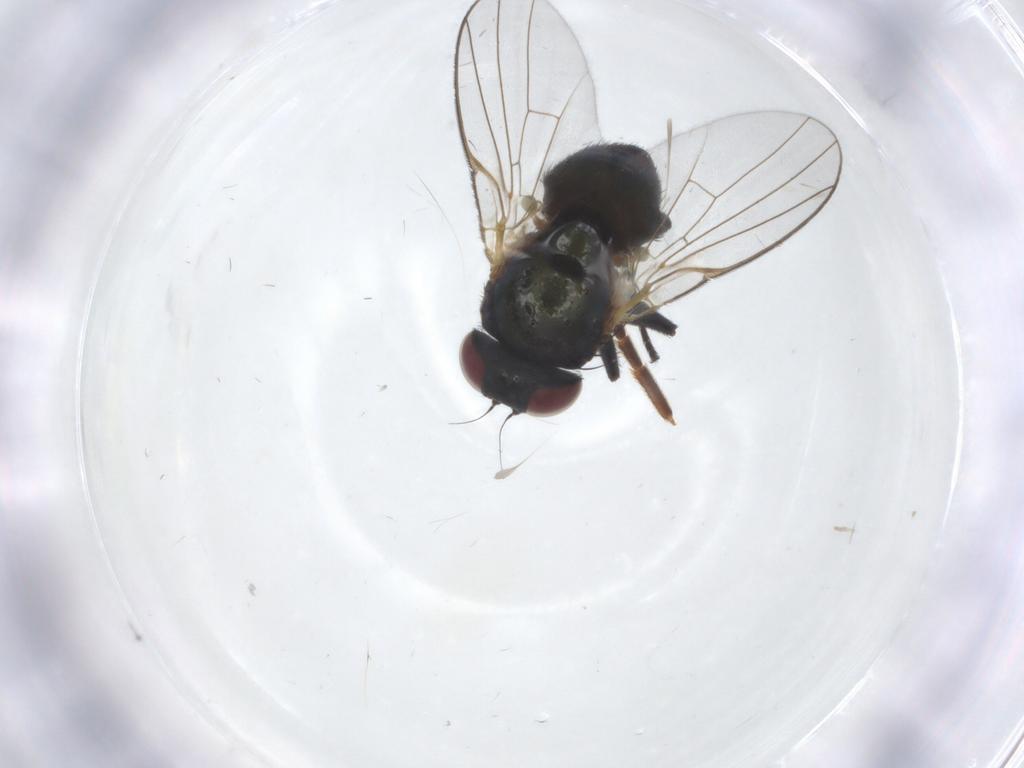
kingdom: Animalia
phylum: Arthropoda
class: Insecta
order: Diptera
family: Agromyzidae
